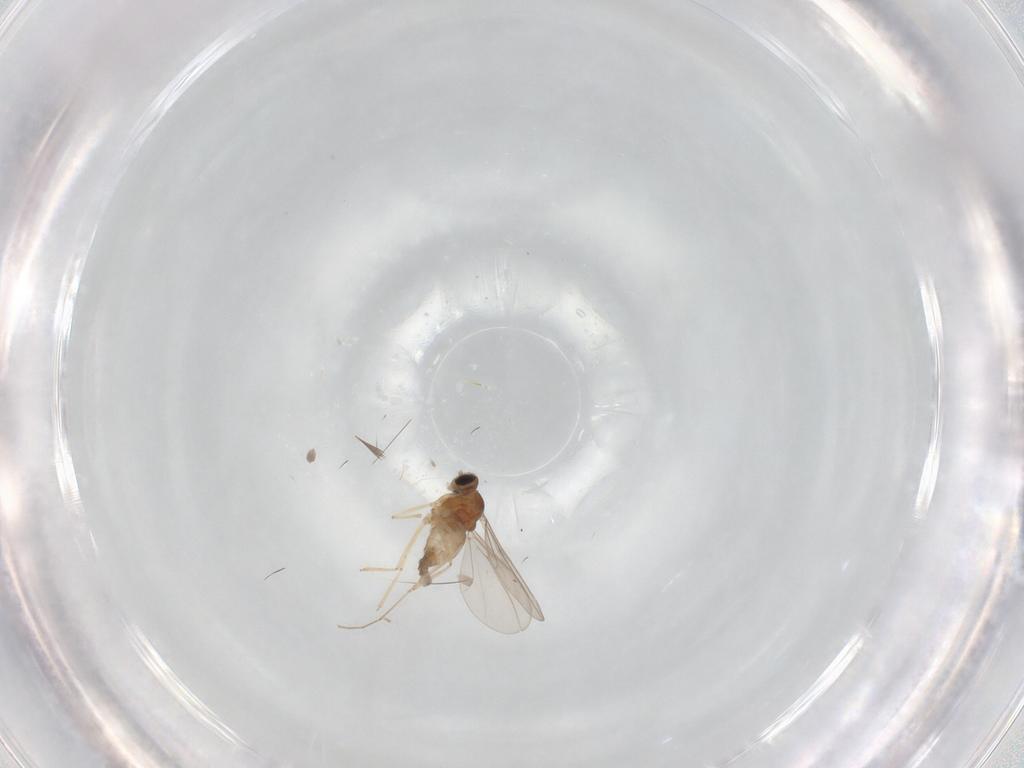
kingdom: Animalia
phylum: Arthropoda
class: Insecta
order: Diptera
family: Cecidomyiidae
